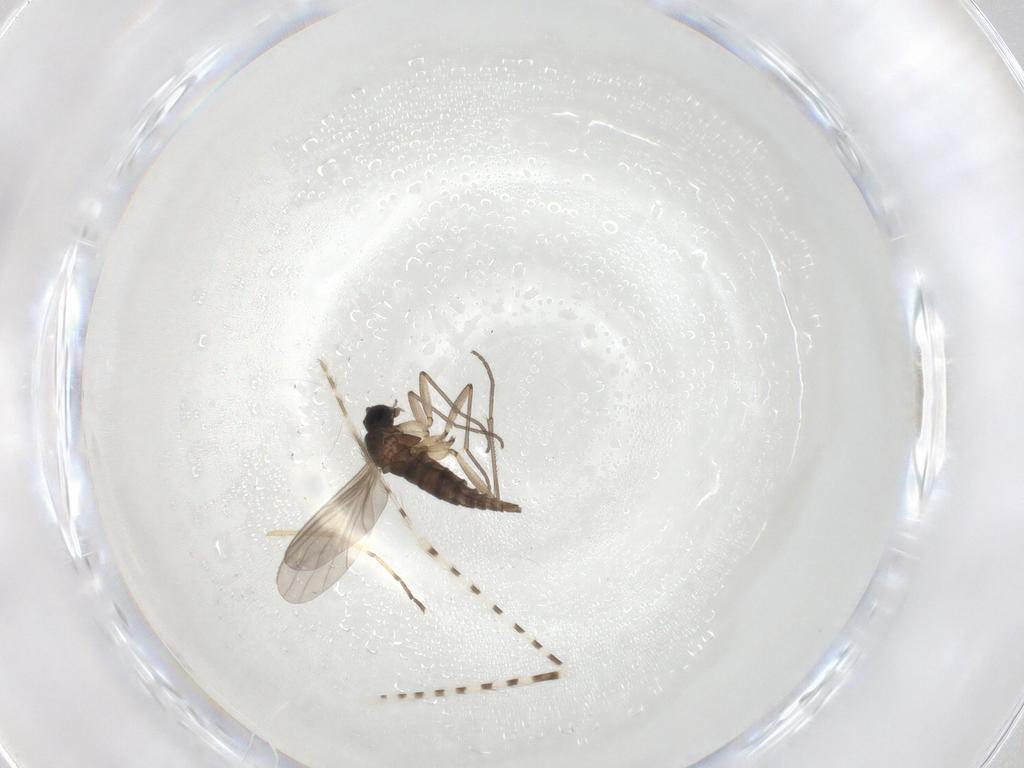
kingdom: Animalia
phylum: Arthropoda
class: Insecta
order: Diptera
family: Sciaridae
